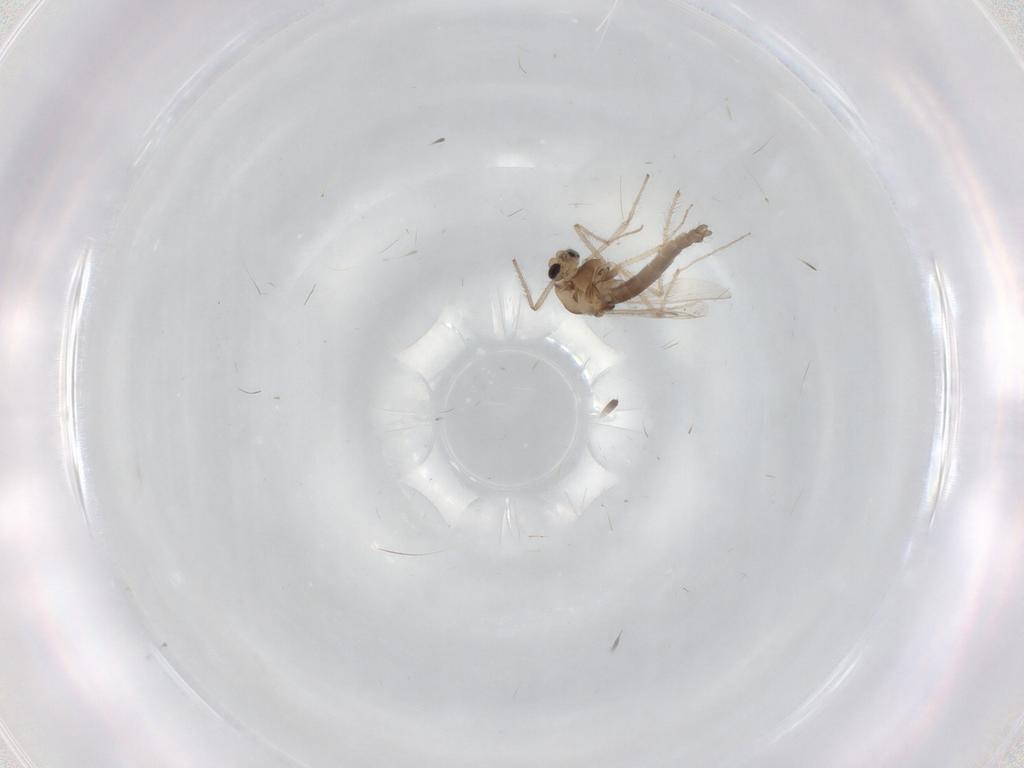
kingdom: Animalia
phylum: Arthropoda
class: Insecta
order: Diptera
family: Chironomidae
